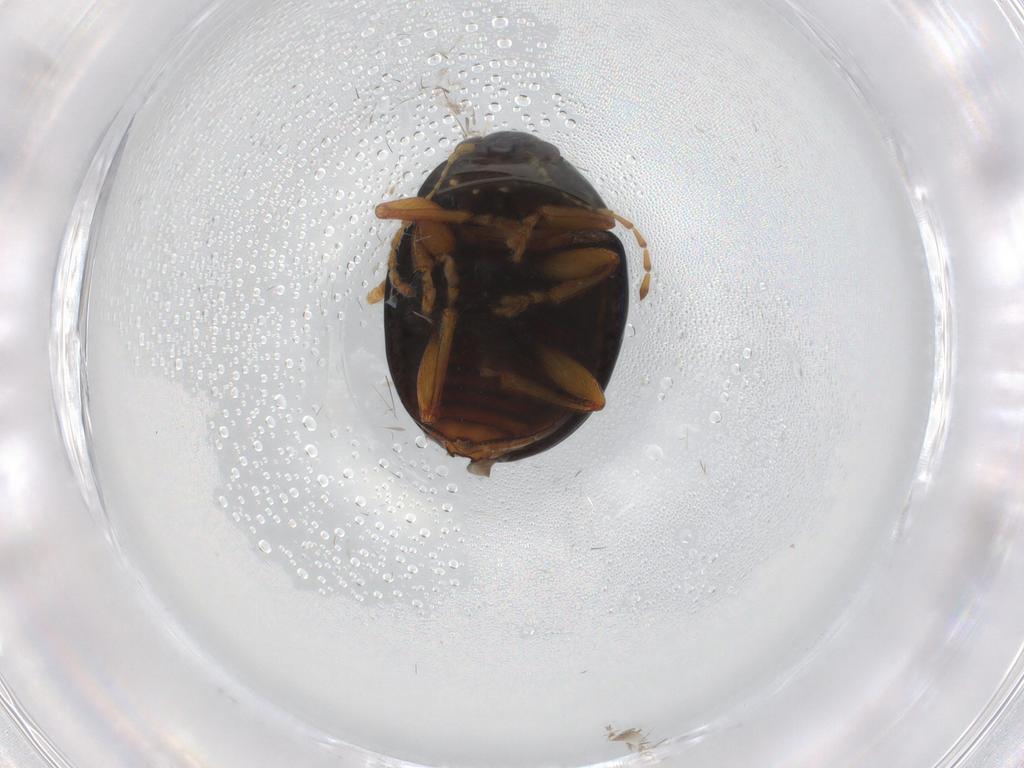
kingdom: Animalia
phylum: Arthropoda
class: Insecta
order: Coleoptera
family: Chrysomelidae
